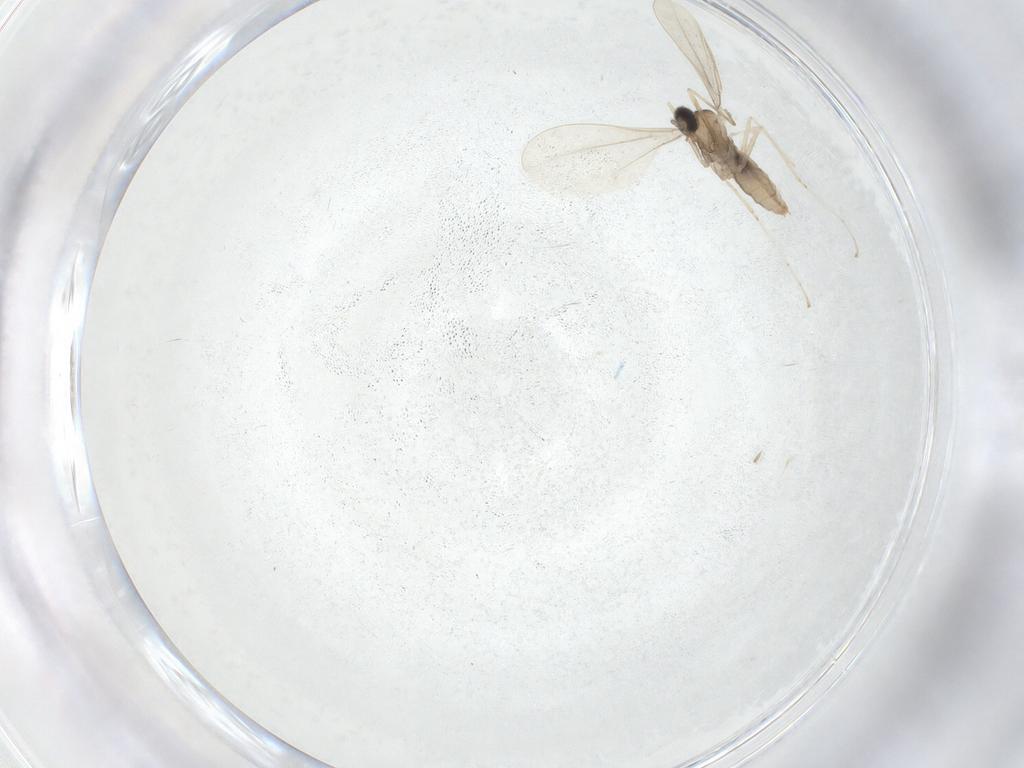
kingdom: Animalia
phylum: Arthropoda
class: Insecta
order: Diptera
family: Cecidomyiidae
